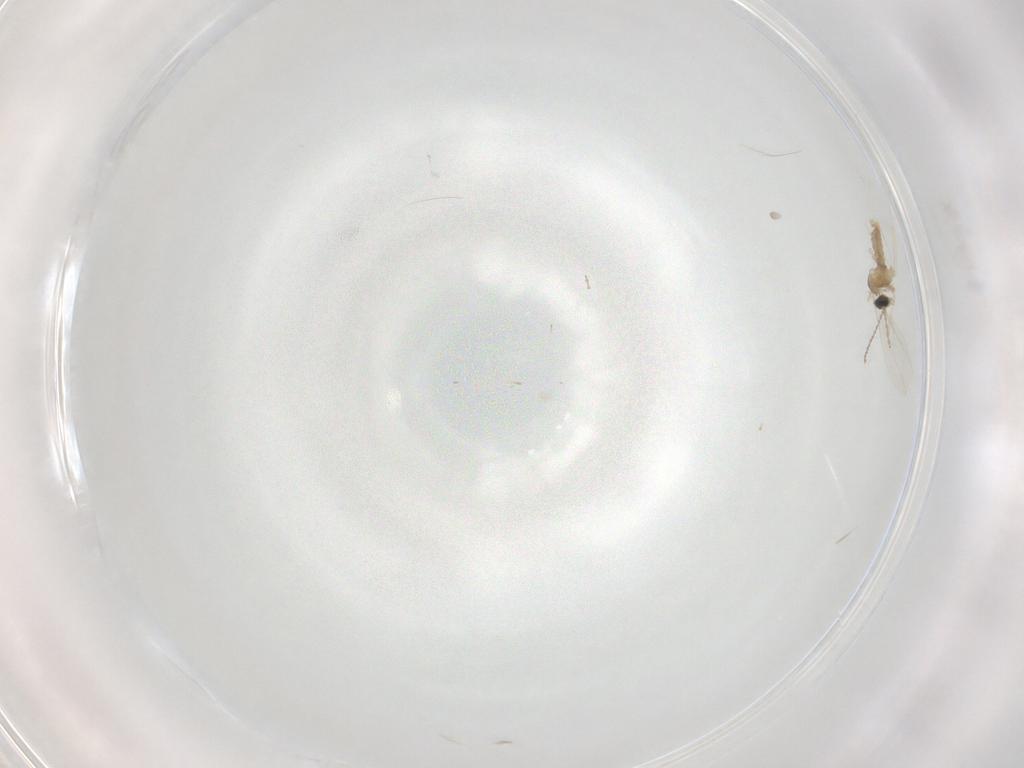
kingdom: Animalia
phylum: Arthropoda
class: Insecta
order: Diptera
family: Cecidomyiidae
